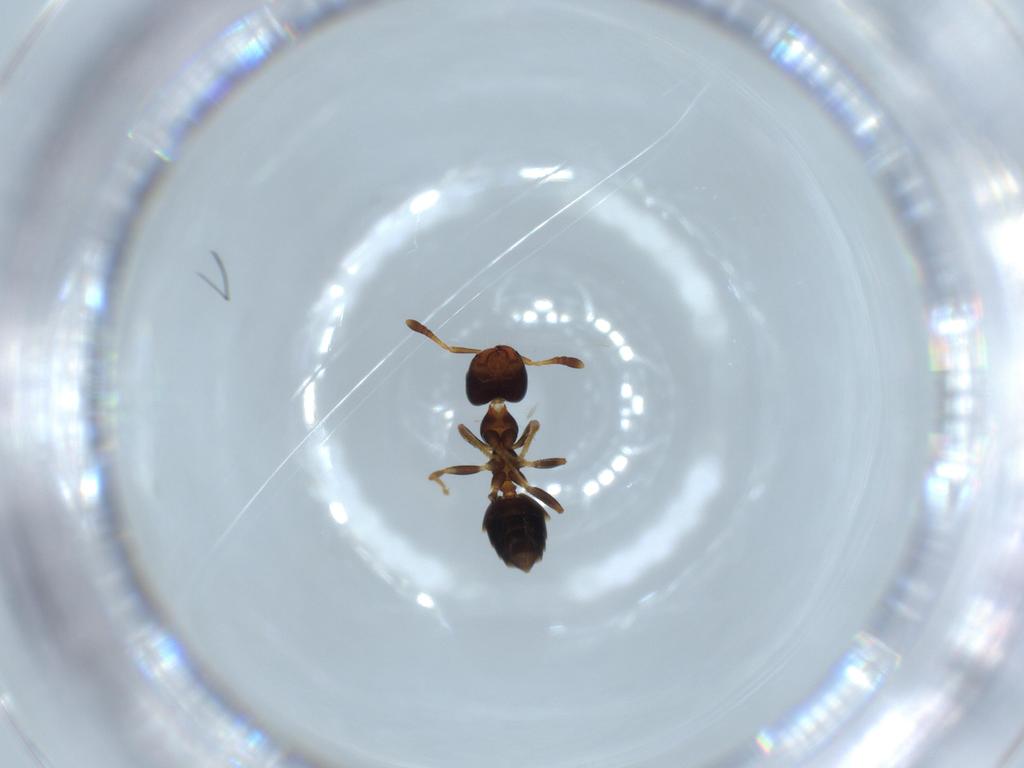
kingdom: Animalia
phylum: Arthropoda
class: Insecta
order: Hymenoptera
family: Formicidae
